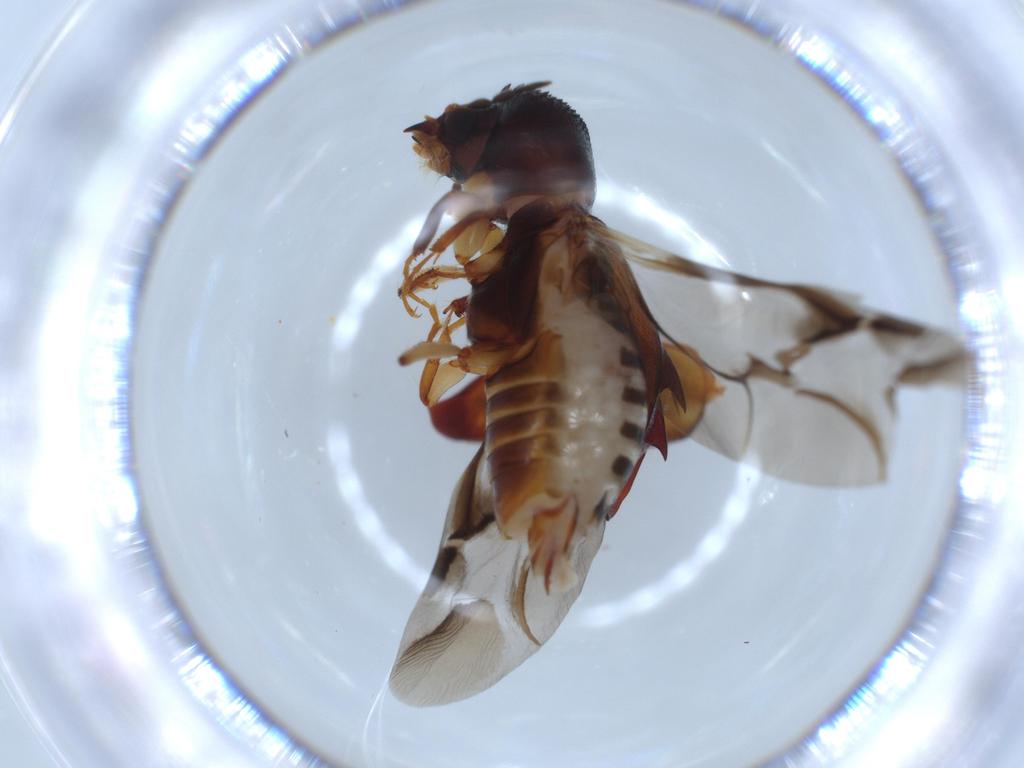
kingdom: Animalia
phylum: Arthropoda
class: Insecta
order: Coleoptera
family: Bostrichidae
